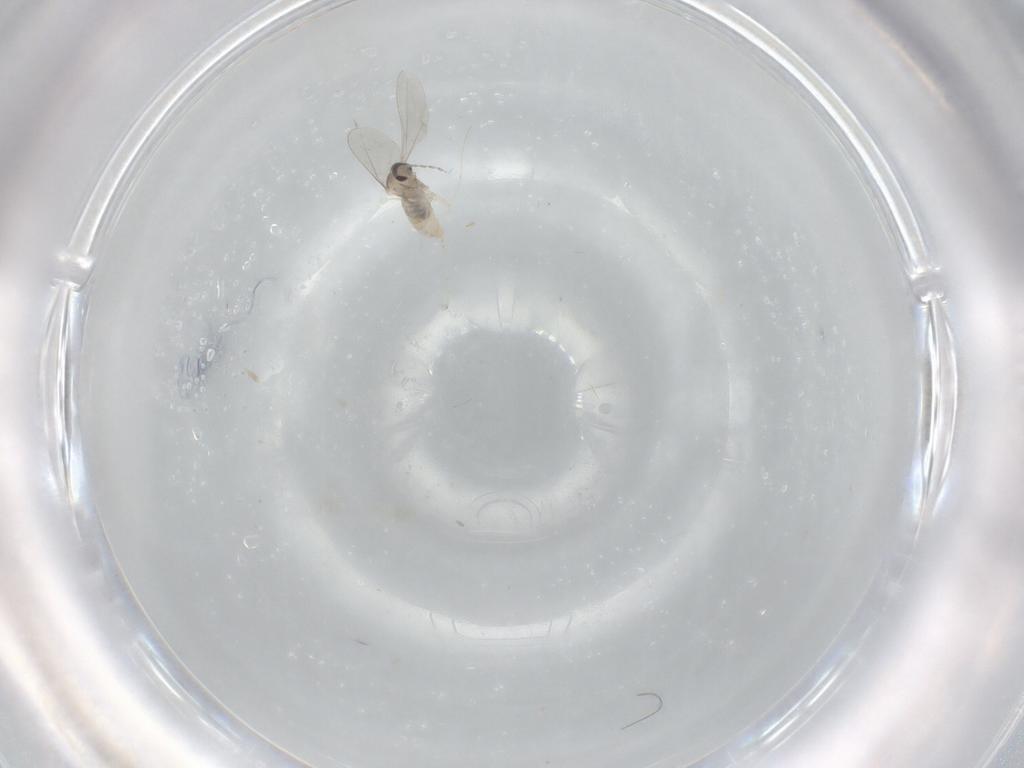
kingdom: Animalia
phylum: Arthropoda
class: Insecta
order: Diptera
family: Cecidomyiidae
